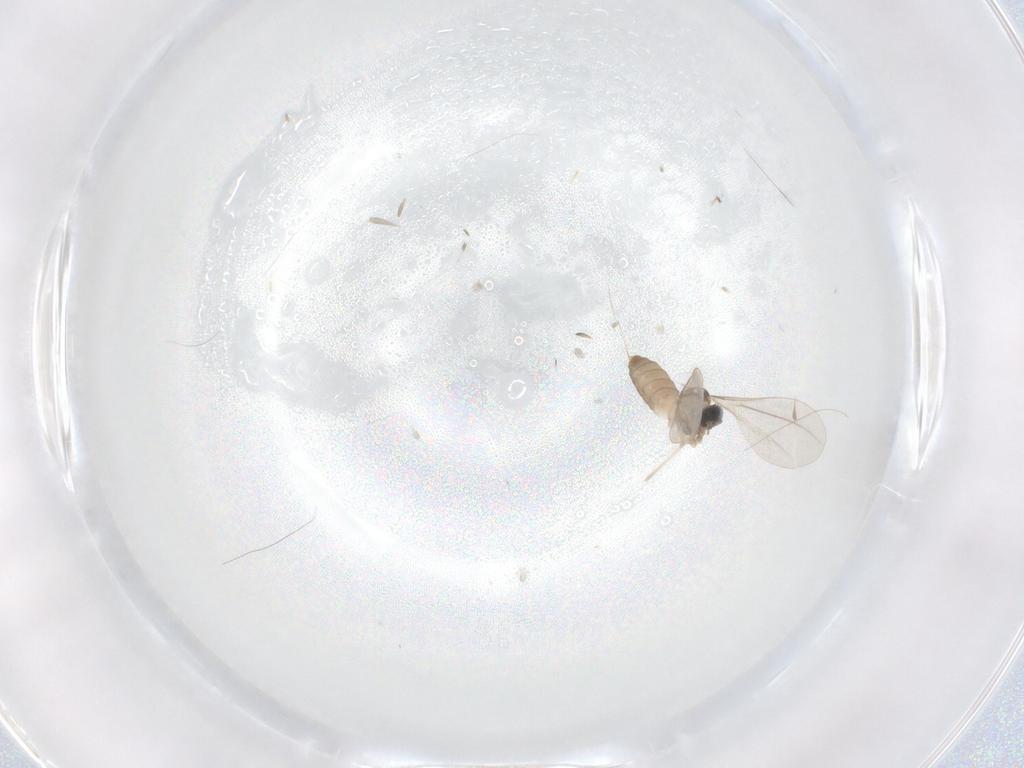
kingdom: Animalia
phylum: Arthropoda
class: Insecta
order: Diptera
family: Cecidomyiidae
